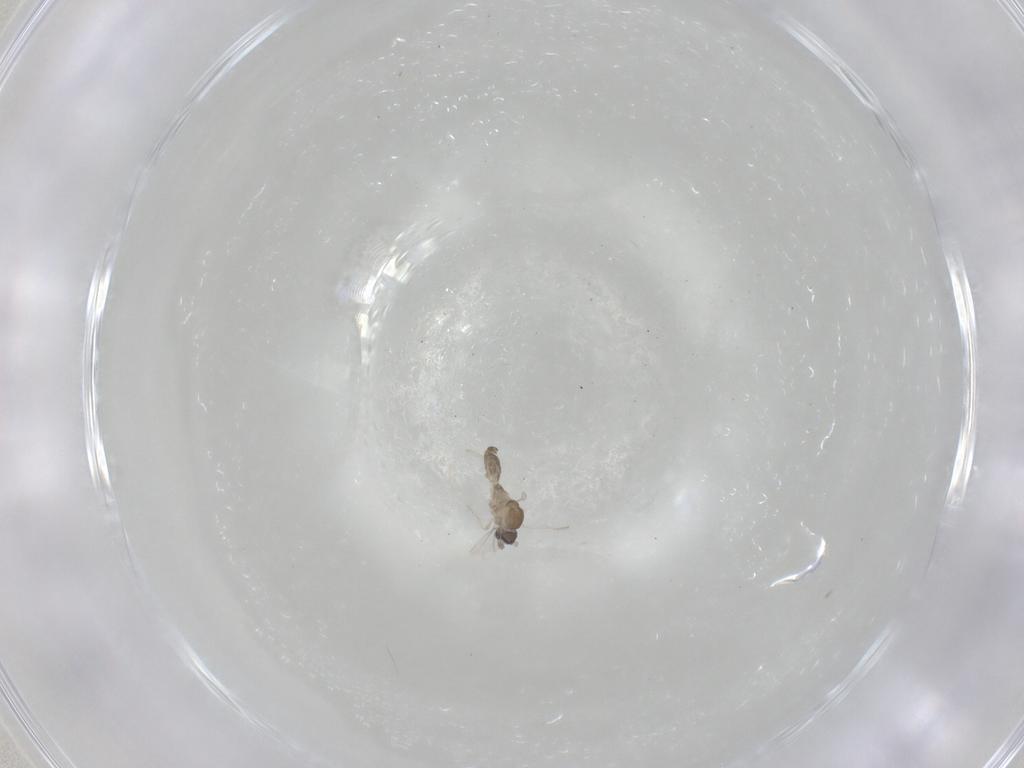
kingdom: Animalia
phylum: Arthropoda
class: Insecta
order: Diptera
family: Cecidomyiidae
